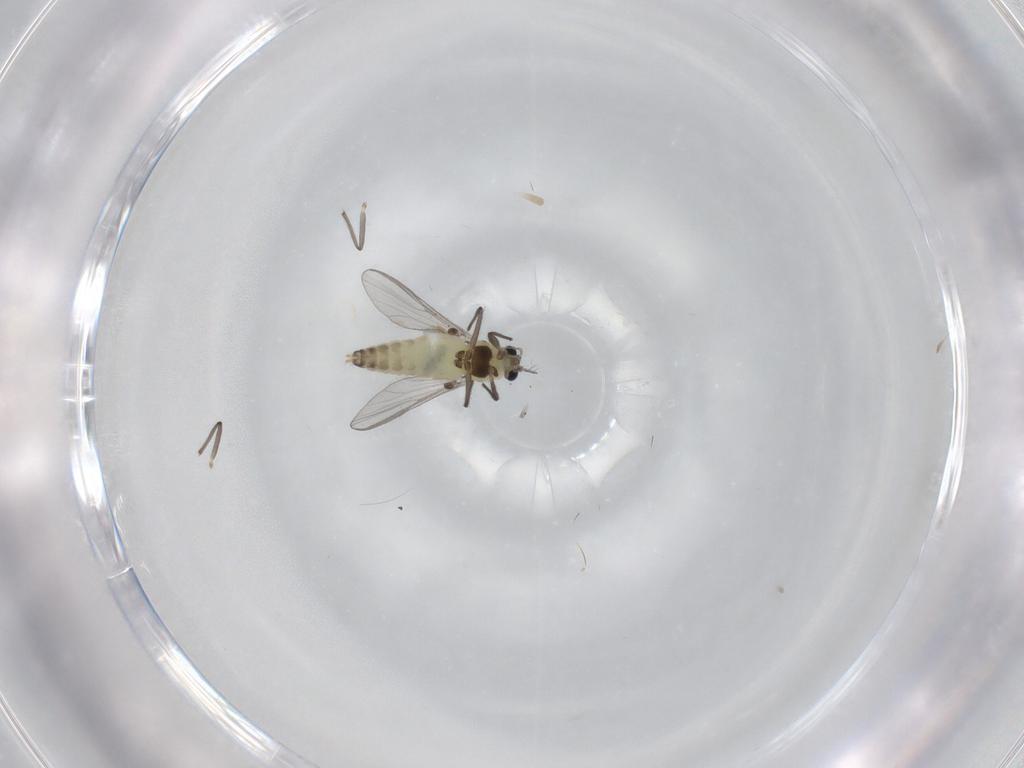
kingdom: Animalia
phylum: Arthropoda
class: Insecta
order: Diptera
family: Chironomidae
